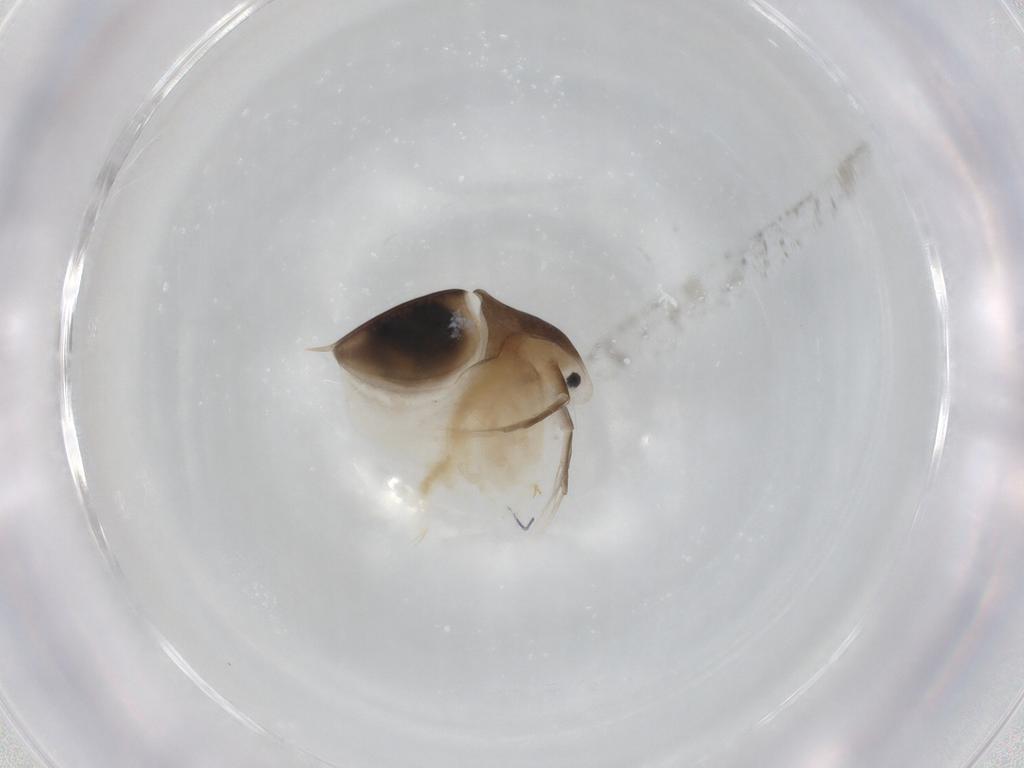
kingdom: Animalia
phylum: Arthropoda
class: Branchiopoda
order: Diplostraca
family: Daphniidae
